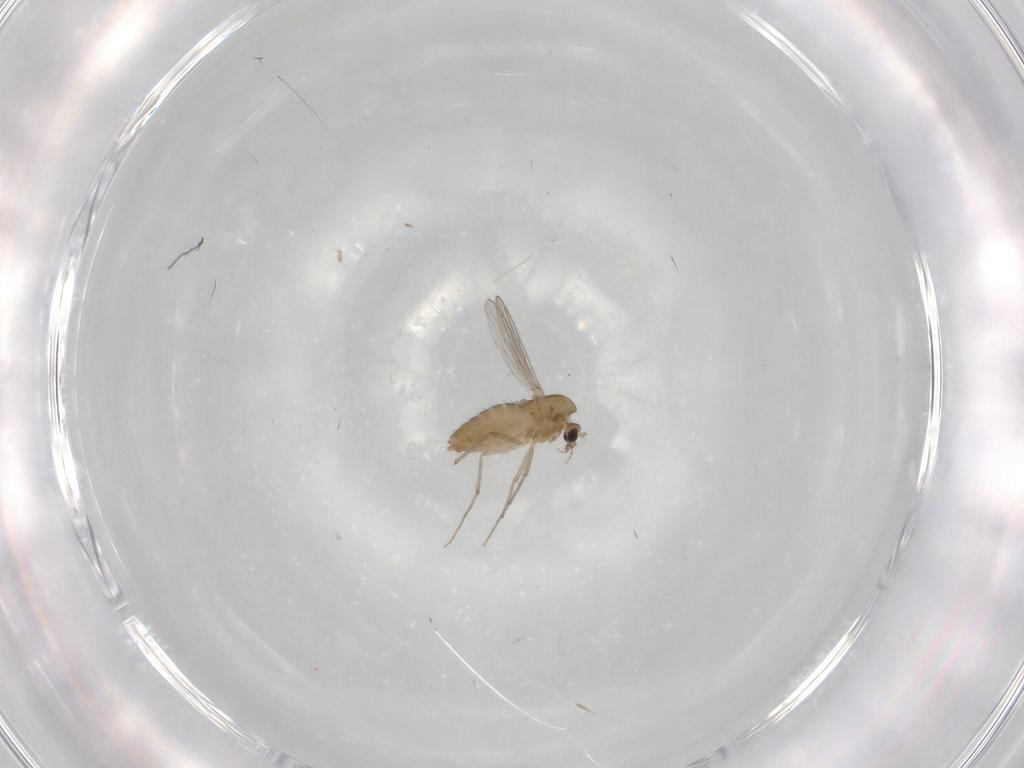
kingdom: Animalia
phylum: Arthropoda
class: Insecta
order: Diptera
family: Chironomidae
